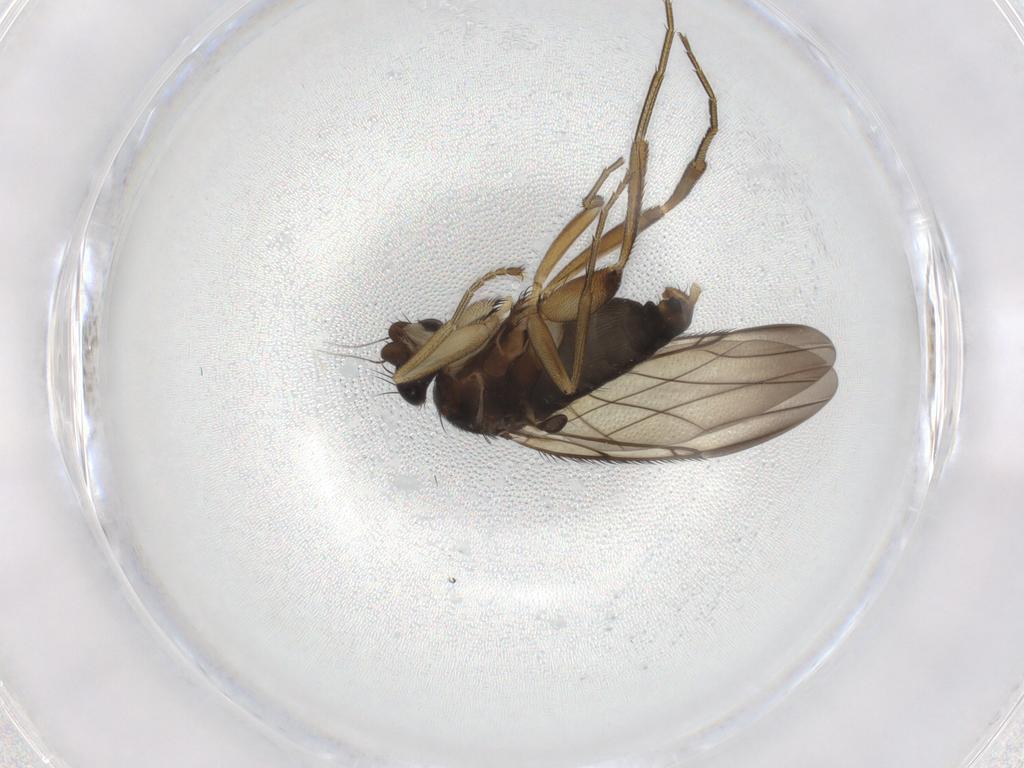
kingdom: Animalia
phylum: Arthropoda
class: Insecta
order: Diptera
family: Phoridae
